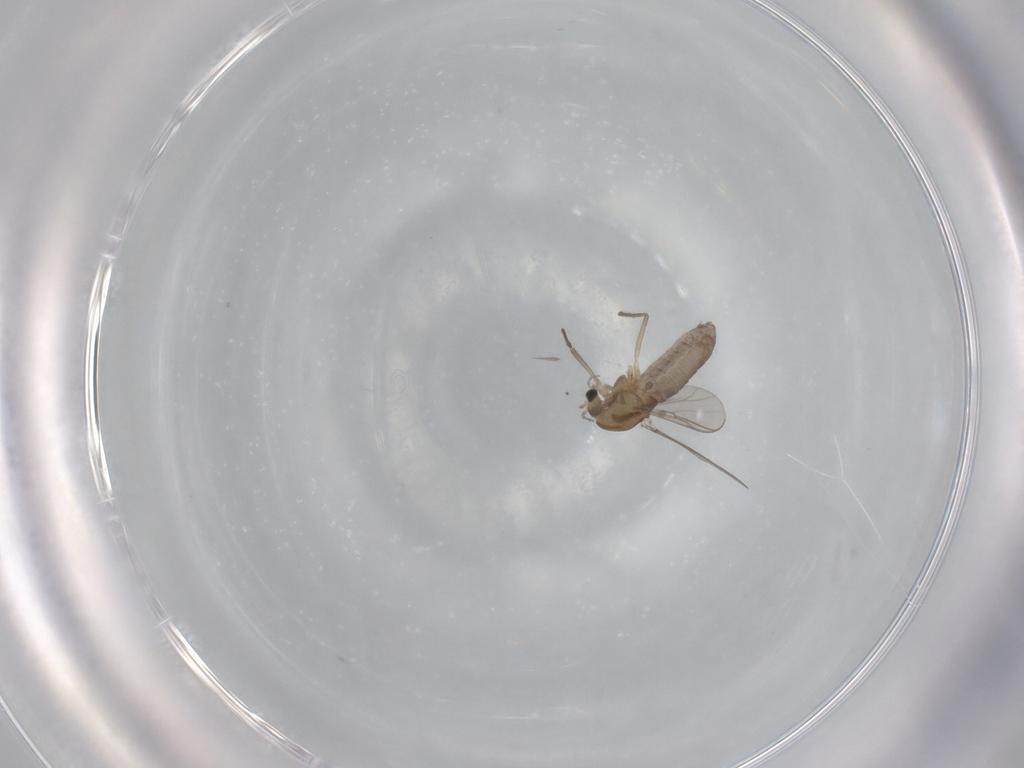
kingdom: Animalia
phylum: Arthropoda
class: Insecta
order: Diptera
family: Chironomidae
